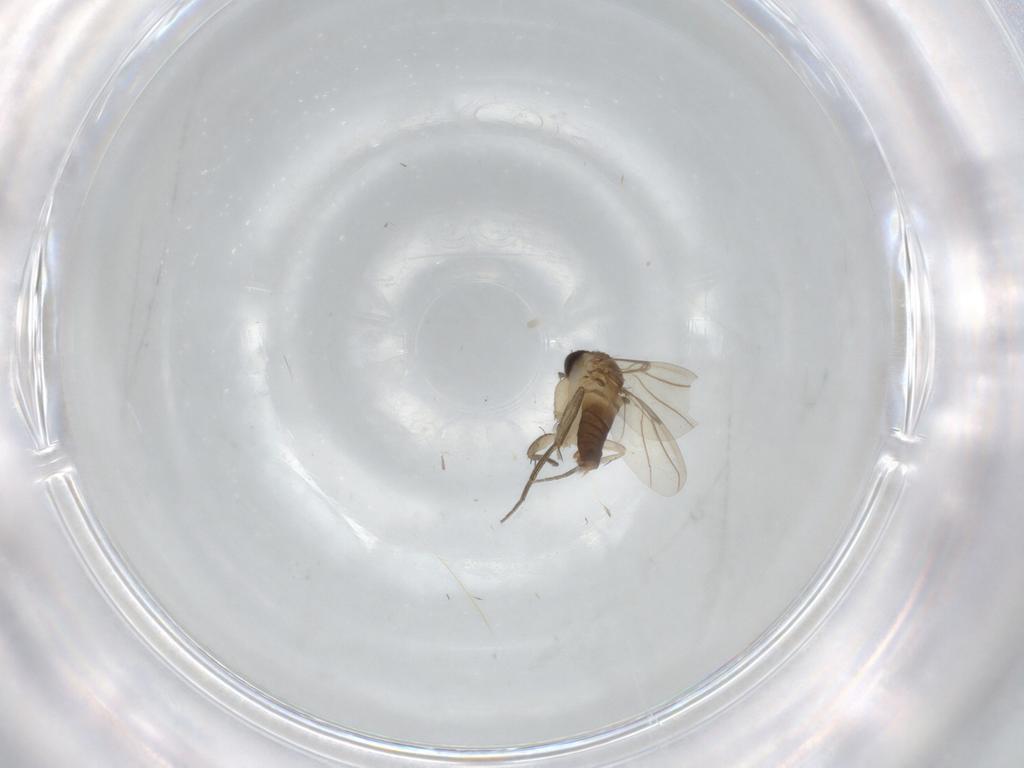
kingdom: Animalia
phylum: Arthropoda
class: Insecta
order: Diptera
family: Phoridae
